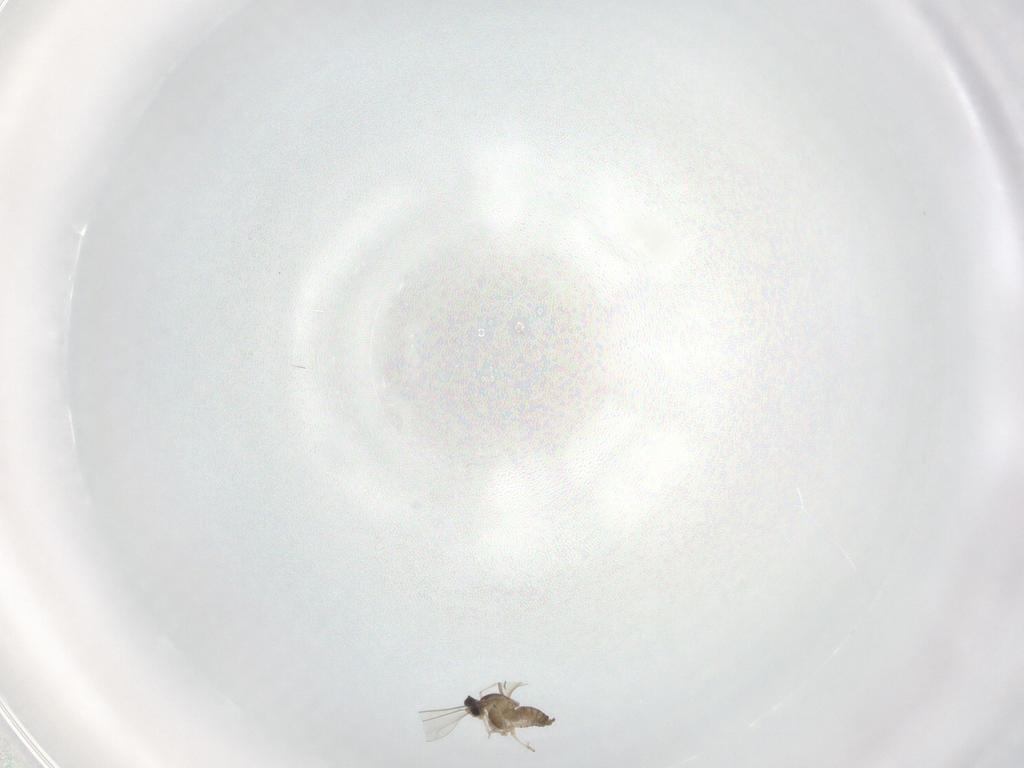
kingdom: Animalia
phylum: Arthropoda
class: Insecta
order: Diptera
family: Cecidomyiidae
